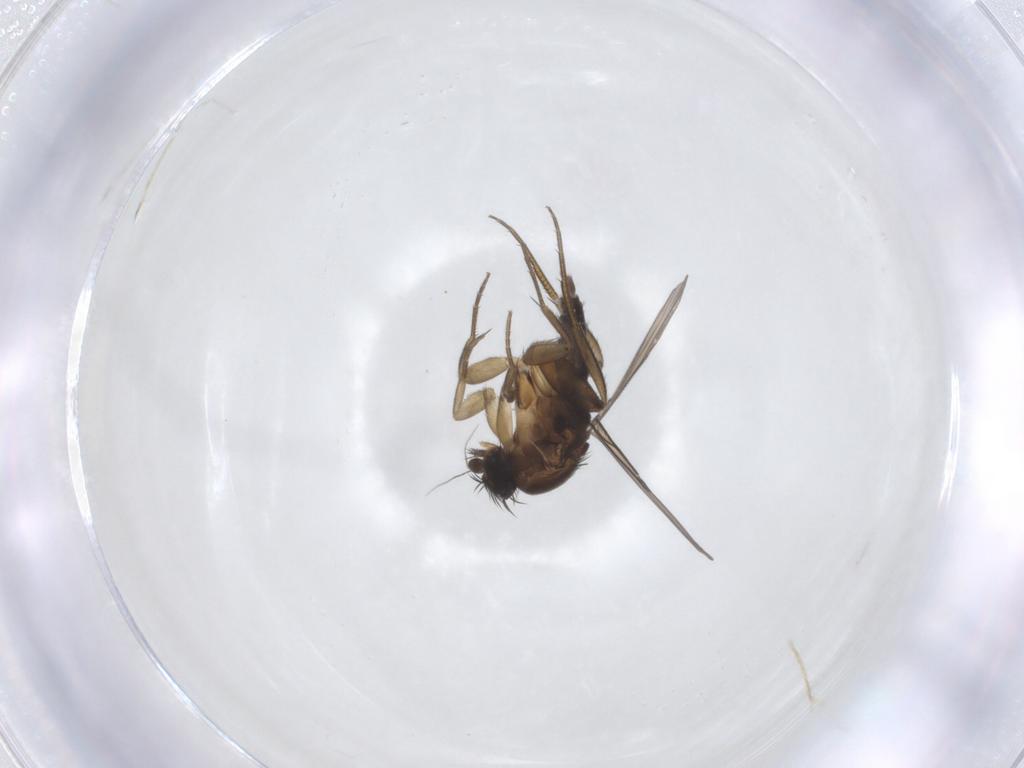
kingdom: Animalia
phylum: Arthropoda
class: Insecta
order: Diptera
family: Phoridae
